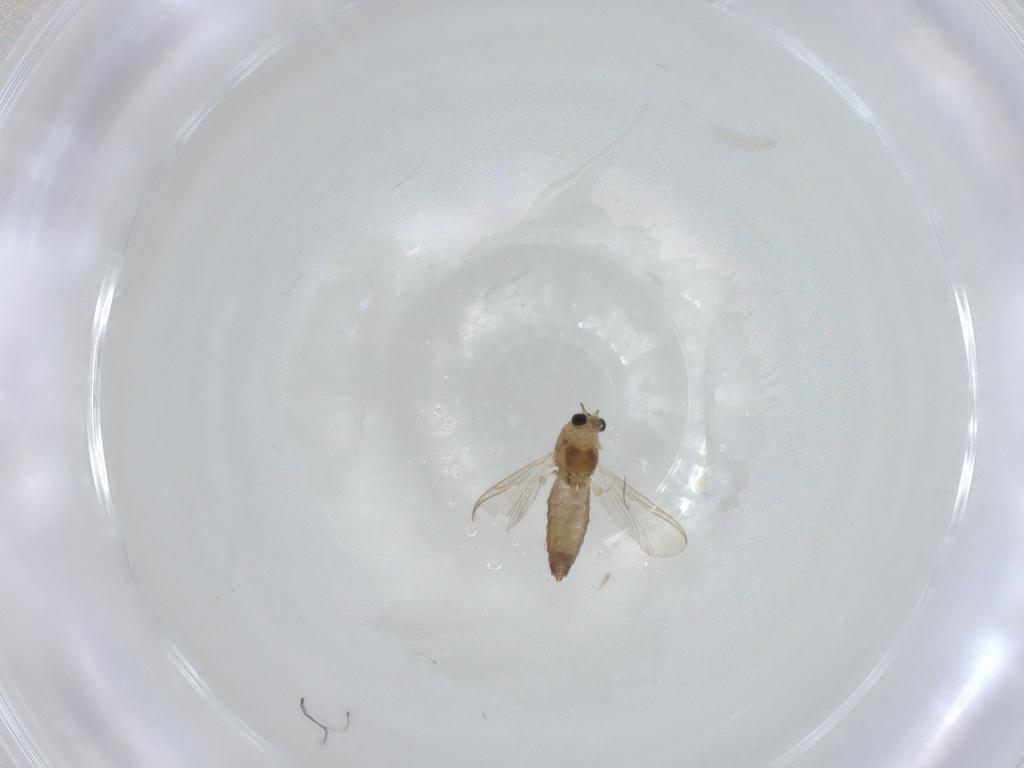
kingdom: Animalia
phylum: Arthropoda
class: Insecta
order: Diptera
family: Chironomidae
